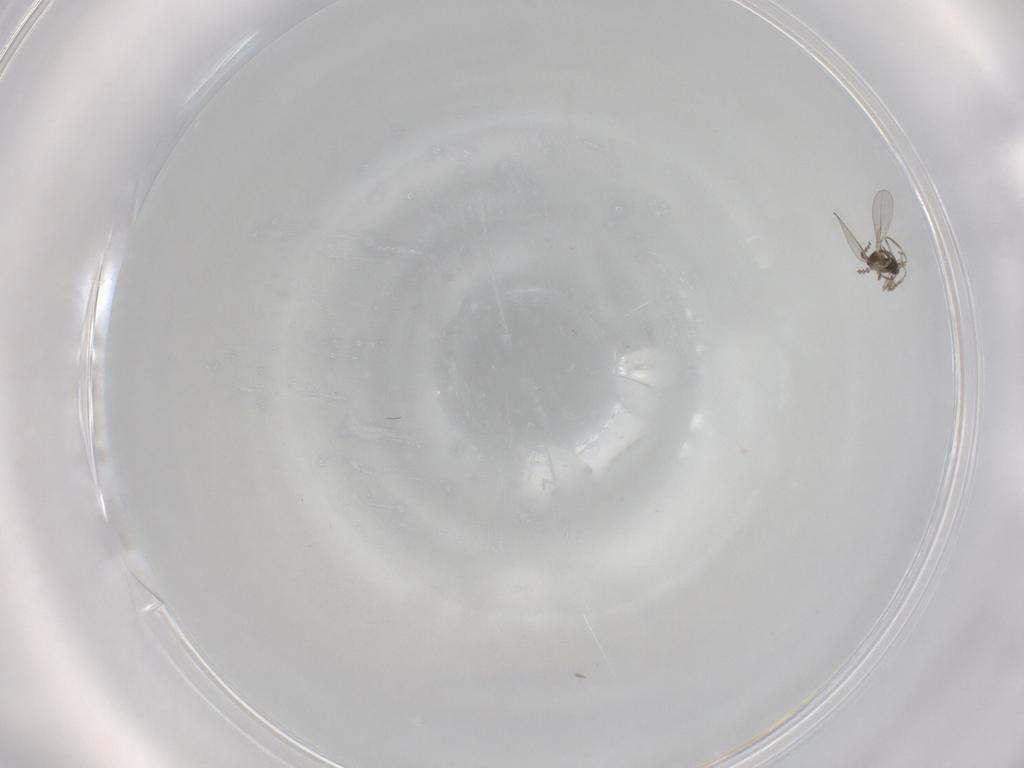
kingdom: Animalia
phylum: Arthropoda
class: Insecta
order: Diptera
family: Cecidomyiidae
